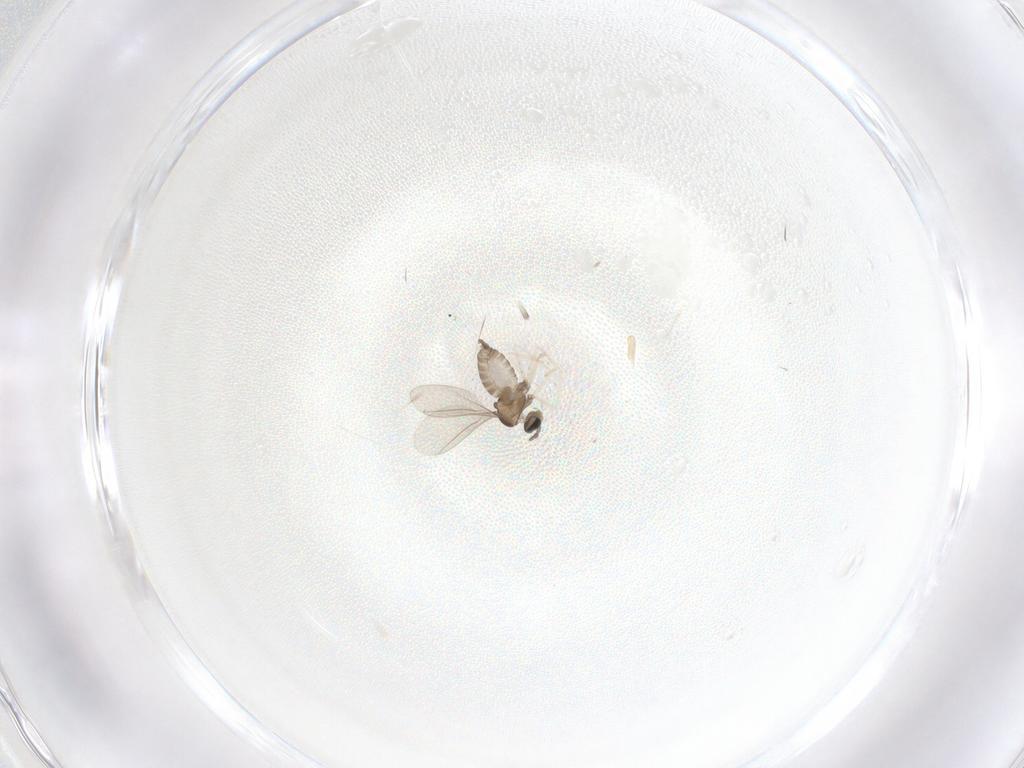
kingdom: Animalia
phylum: Arthropoda
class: Insecta
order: Diptera
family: Cecidomyiidae
